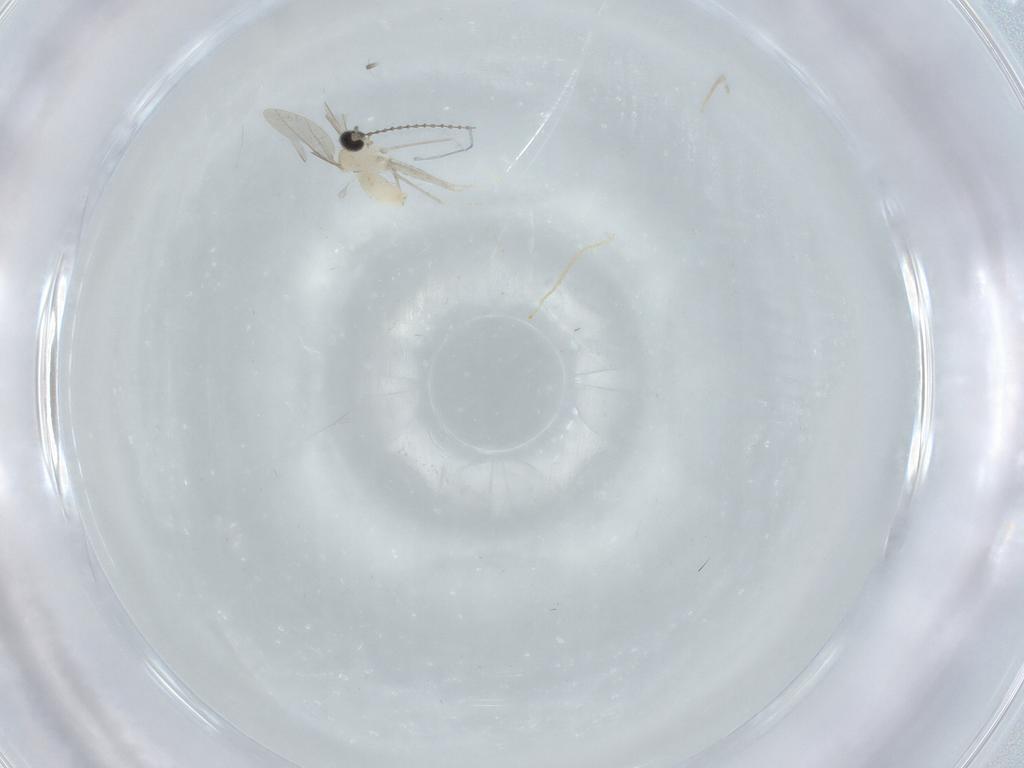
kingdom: Animalia
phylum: Arthropoda
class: Insecta
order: Diptera
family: Cecidomyiidae
